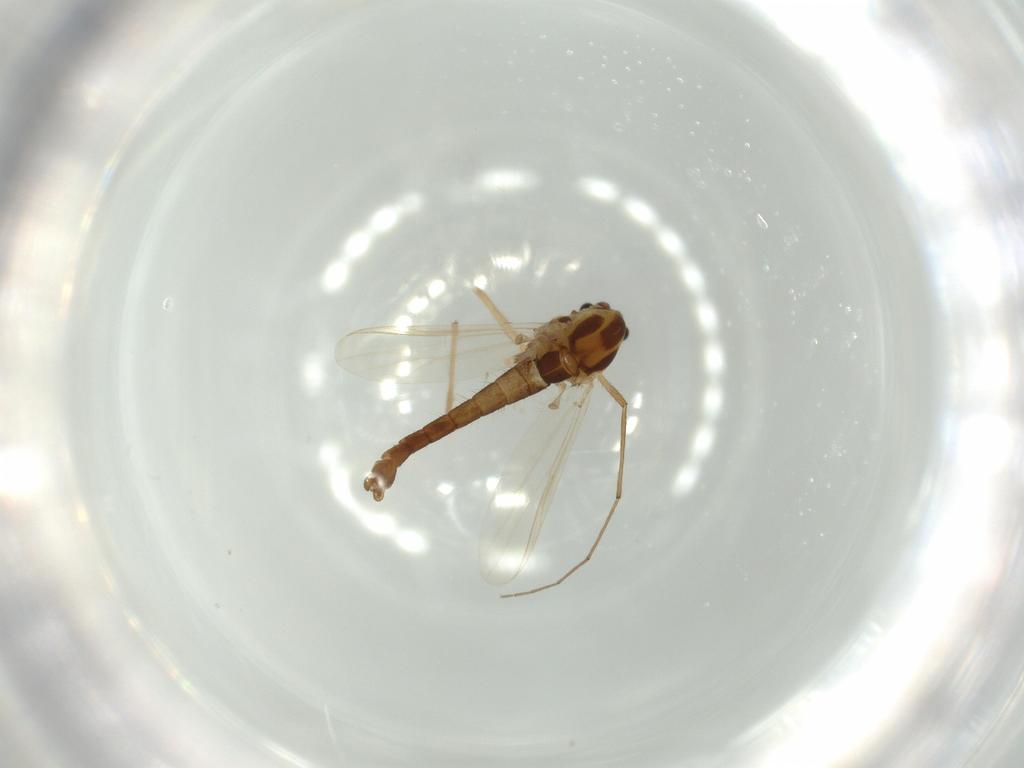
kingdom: Animalia
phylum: Arthropoda
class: Insecta
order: Diptera
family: Chironomidae
